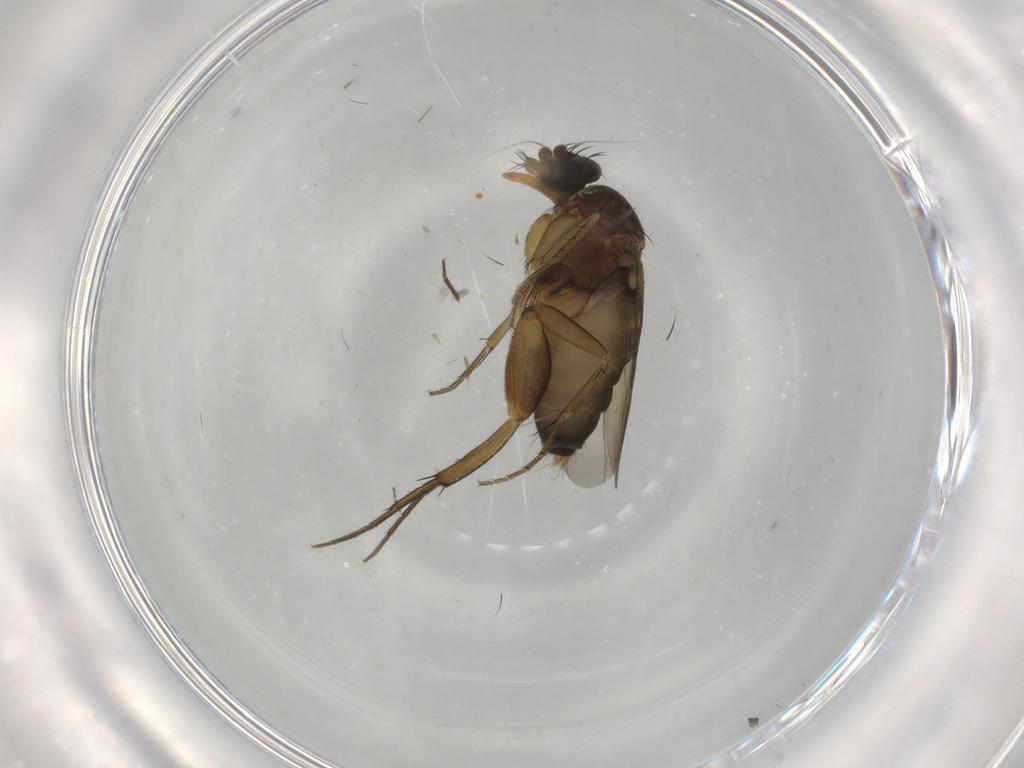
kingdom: Animalia
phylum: Arthropoda
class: Insecta
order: Diptera
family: Phoridae
